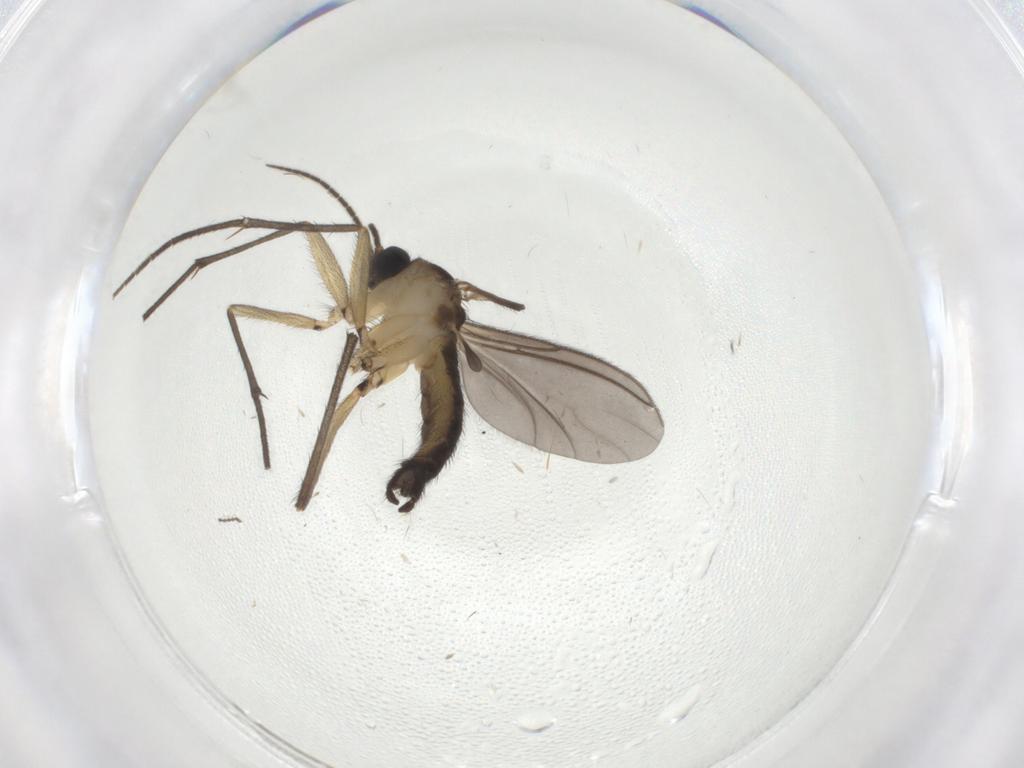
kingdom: Animalia
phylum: Arthropoda
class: Insecta
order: Diptera
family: Sciaridae
